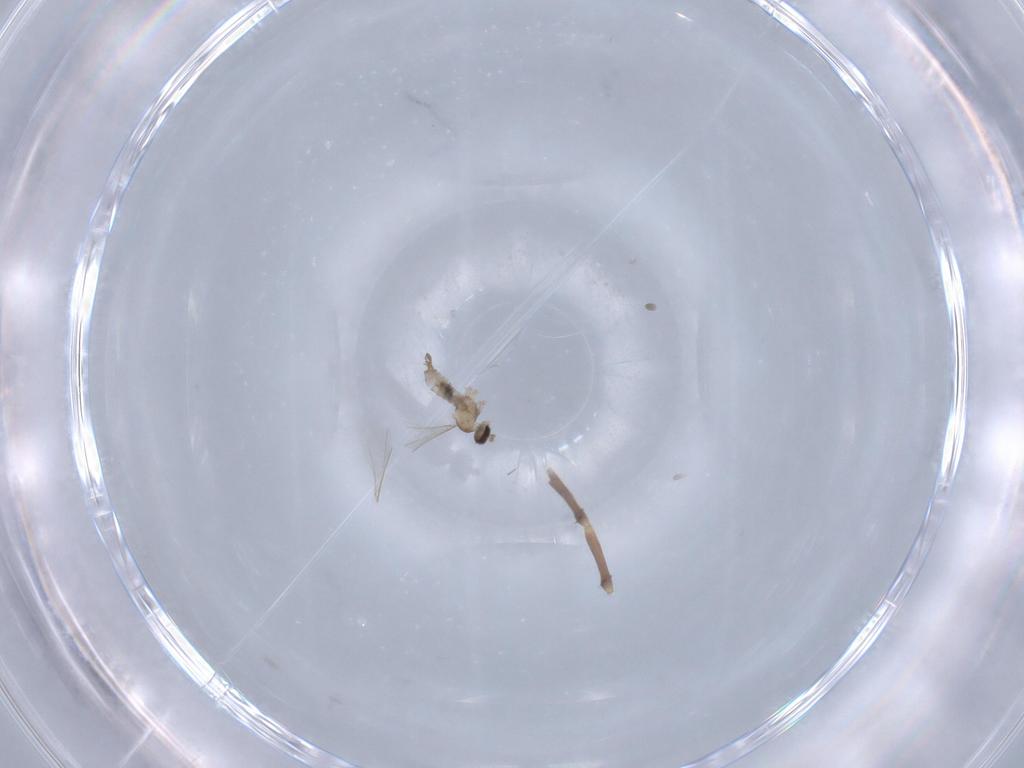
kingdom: Animalia
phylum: Arthropoda
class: Insecta
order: Diptera
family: Cecidomyiidae
